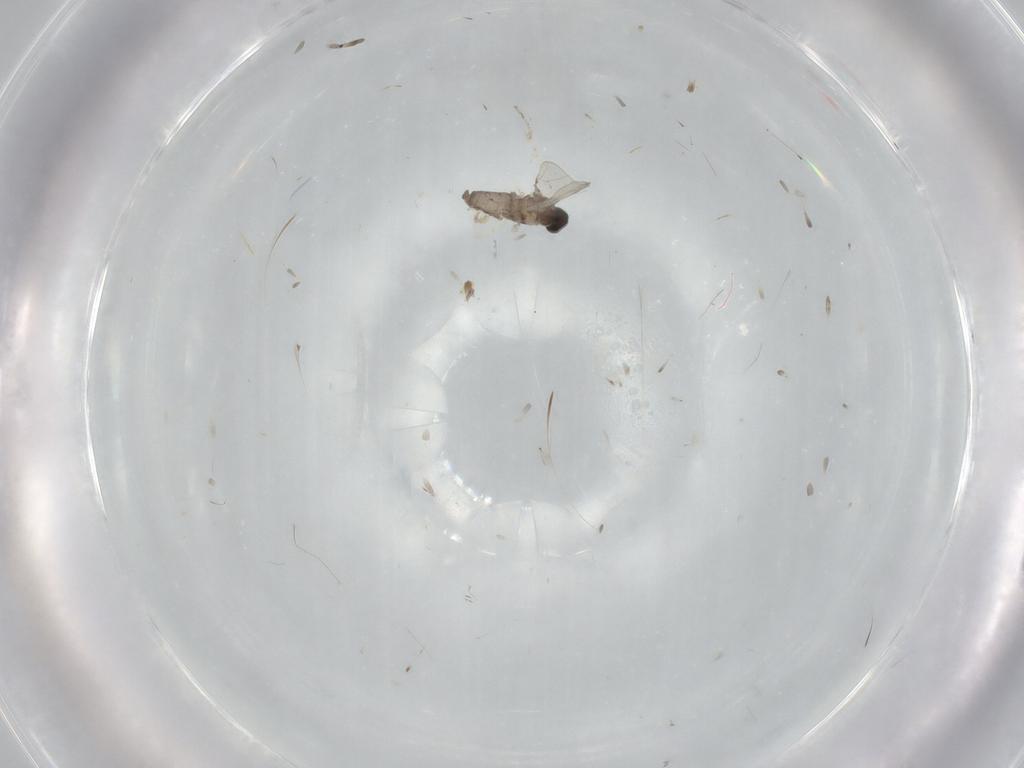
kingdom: Animalia
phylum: Arthropoda
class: Insecta
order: Diptera
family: Cecidomyiidae
